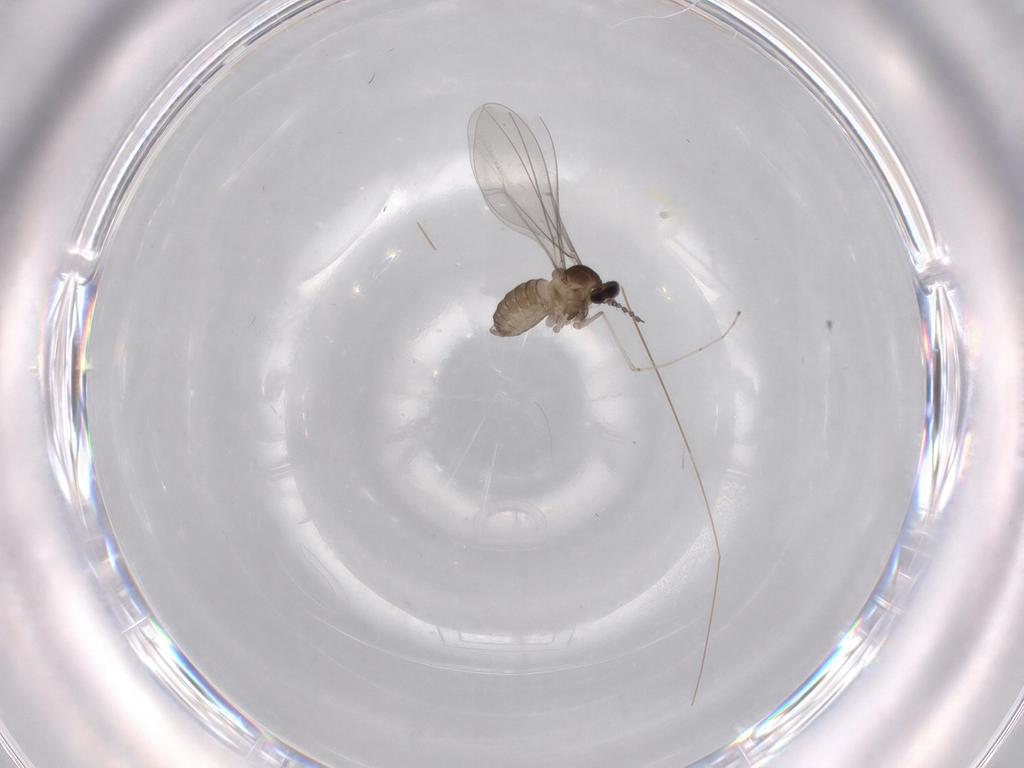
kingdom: Animalia
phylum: Arthropoda
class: Insecta
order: Diptera
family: Cecidomyiidae
